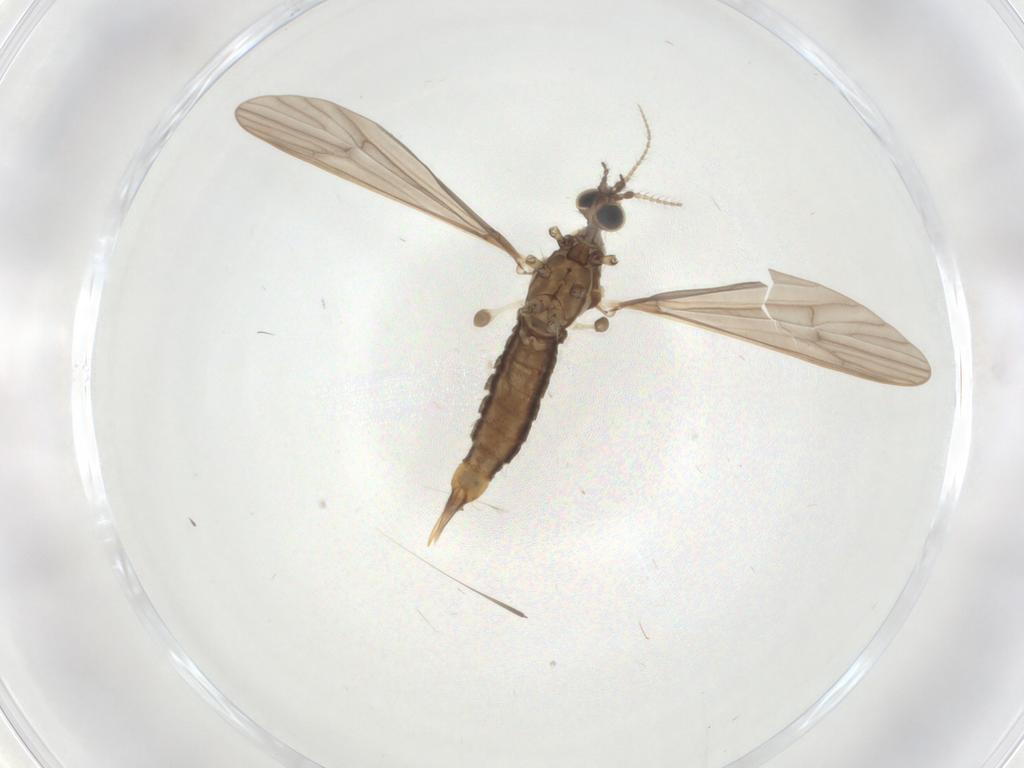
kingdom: Animalia
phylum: Arthropoda
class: Insecta
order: Diptera
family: Limoniidae
